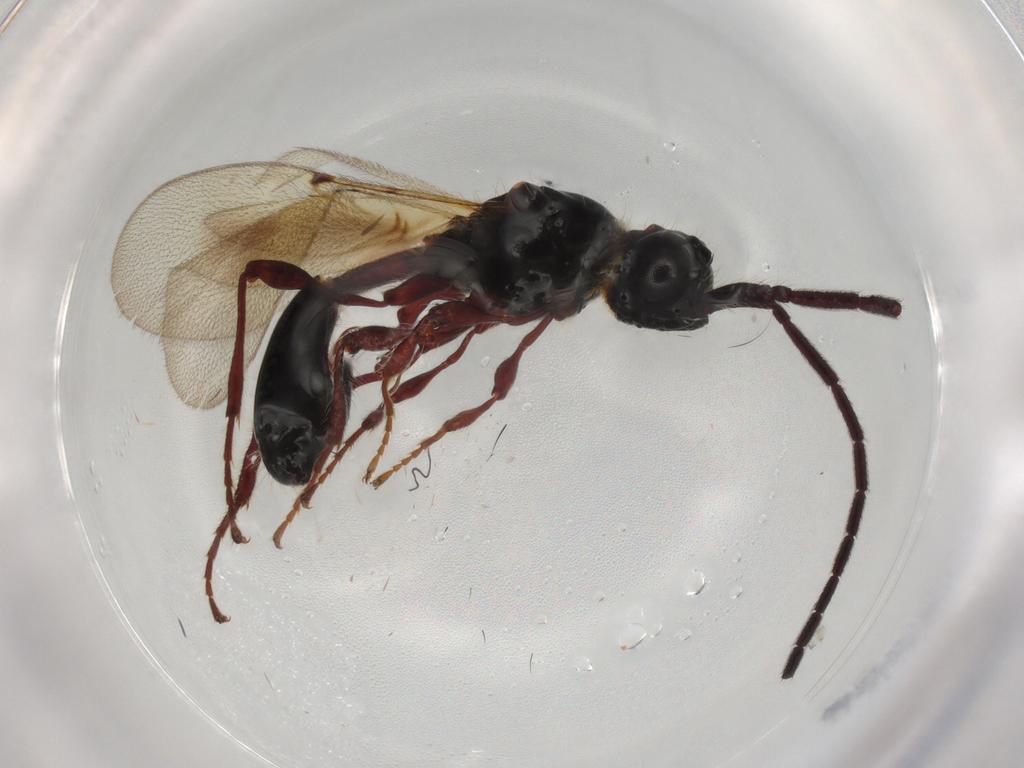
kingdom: Animalia
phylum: Arthropoda
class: Insecta
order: Hymenoptera
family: Diapriidae
